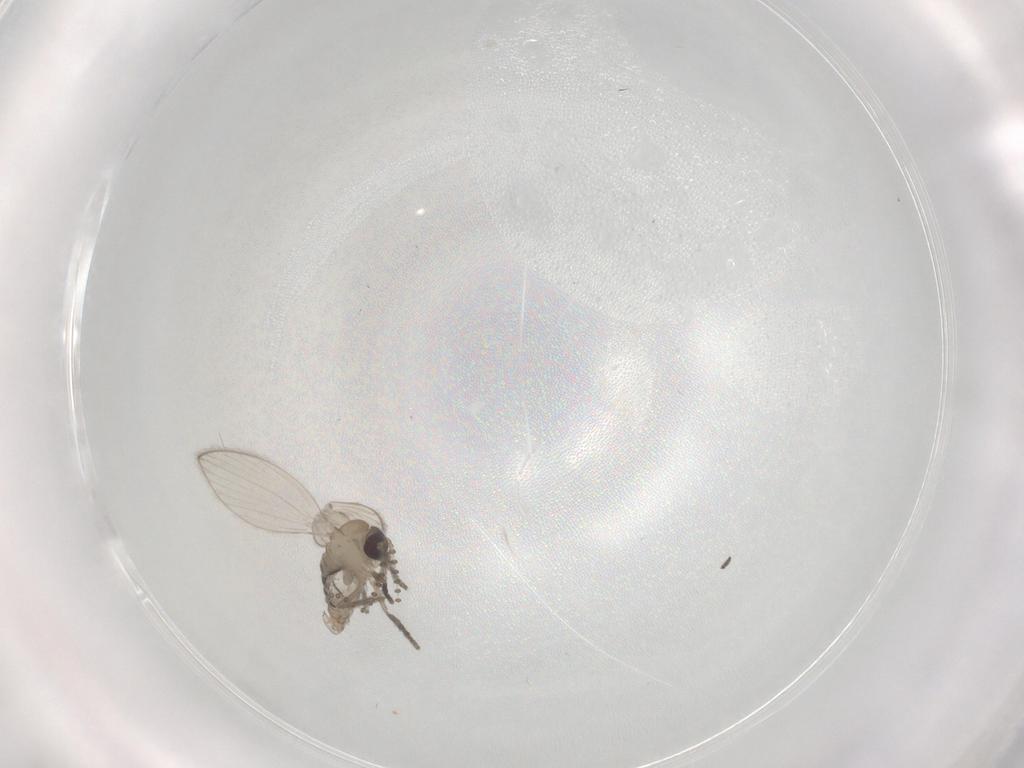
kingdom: Animalia
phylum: Arthropoda
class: Insecta
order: Diptera
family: Psychodidae
